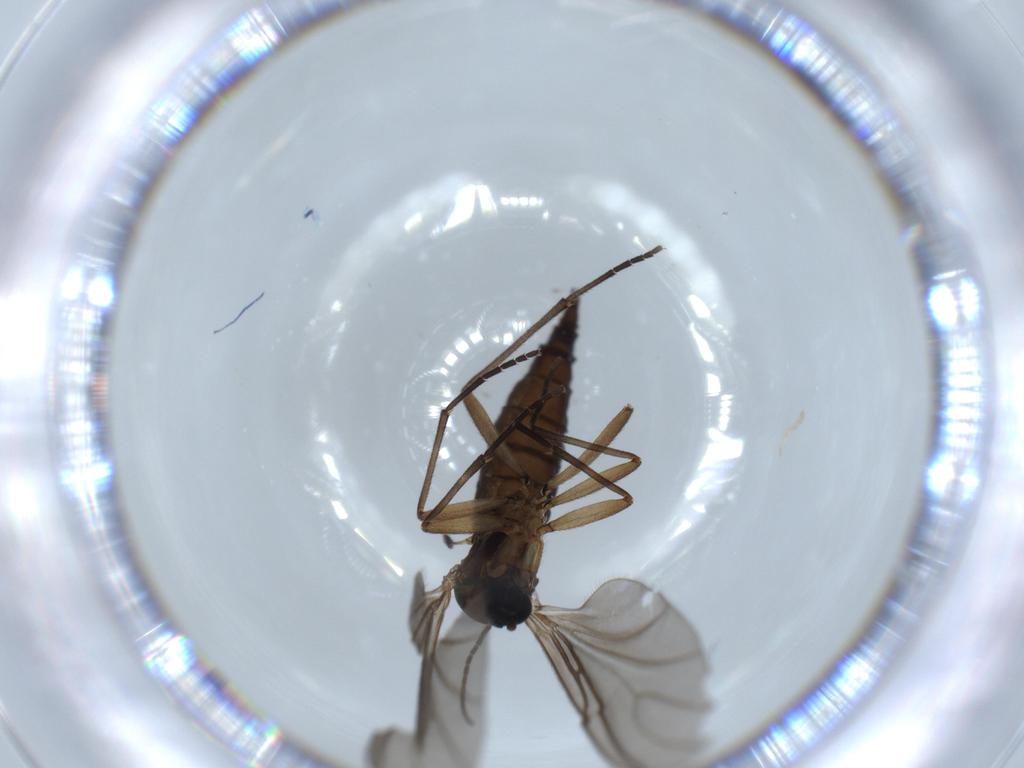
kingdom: Animalia
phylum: Arthropoda
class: Insecta
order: Diptera
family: Sciaridae
